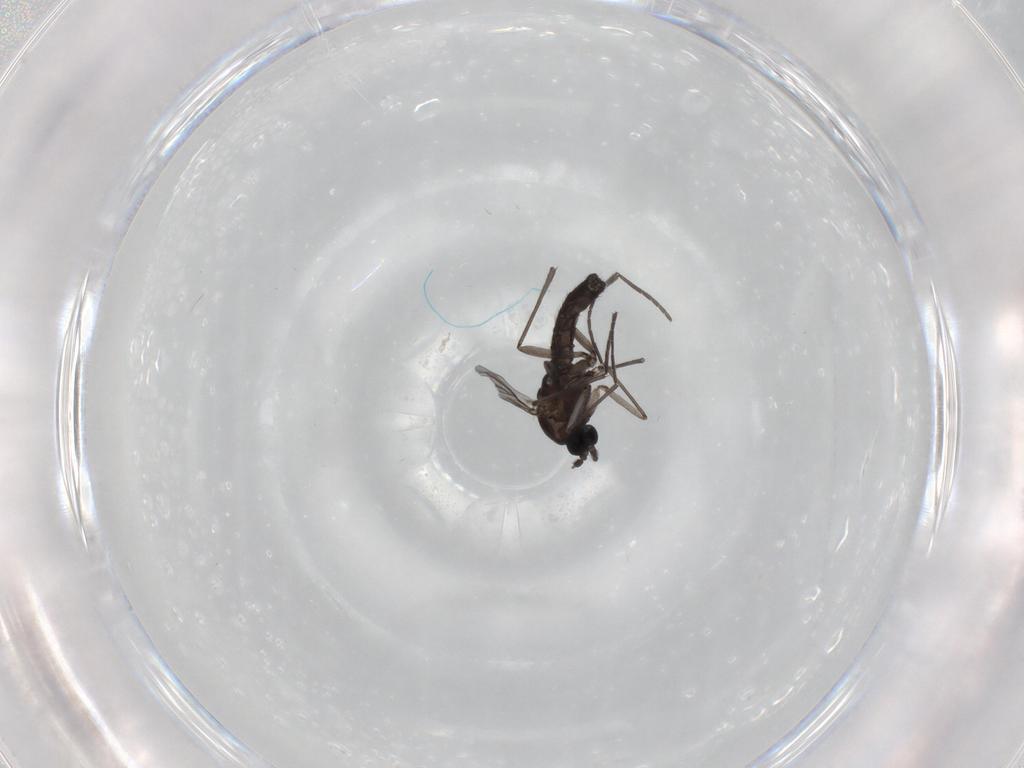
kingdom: Animalia
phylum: Arthropoda
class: Insecta
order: Diptera
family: Sciaridae
